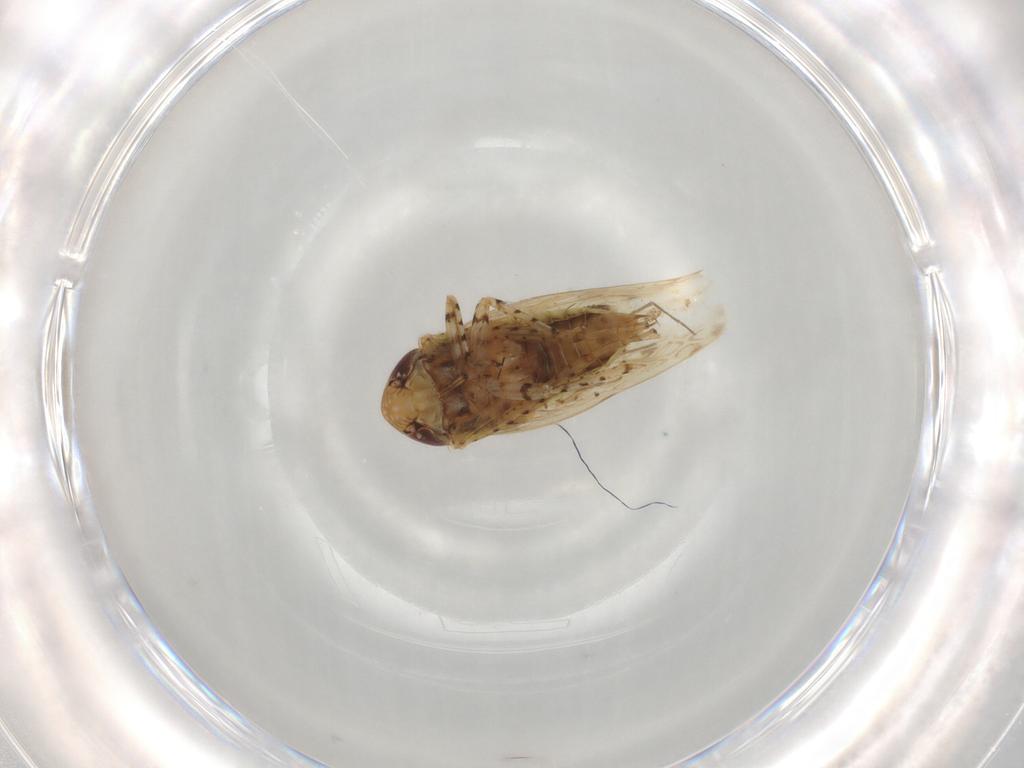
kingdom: Animalia
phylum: Arthropoda
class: Insecta
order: Hemiptera
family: Cicadellidae
